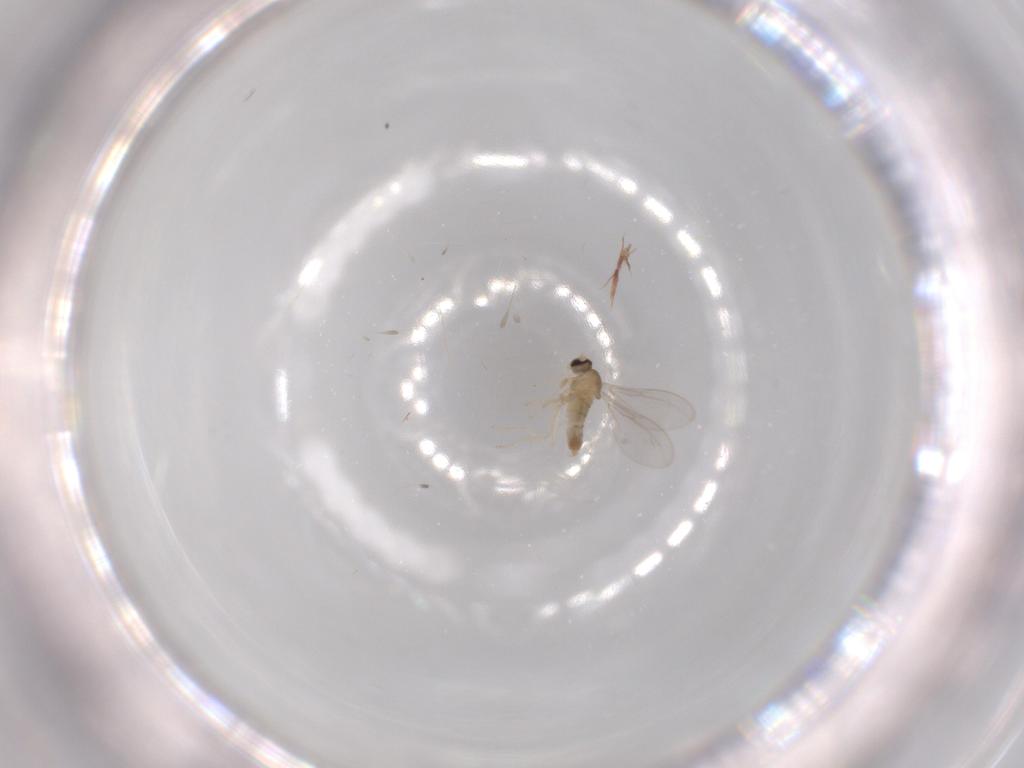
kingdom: Animalia
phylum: Arthropoda
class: Insecta
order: Diptera
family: Cecidomyiidae
